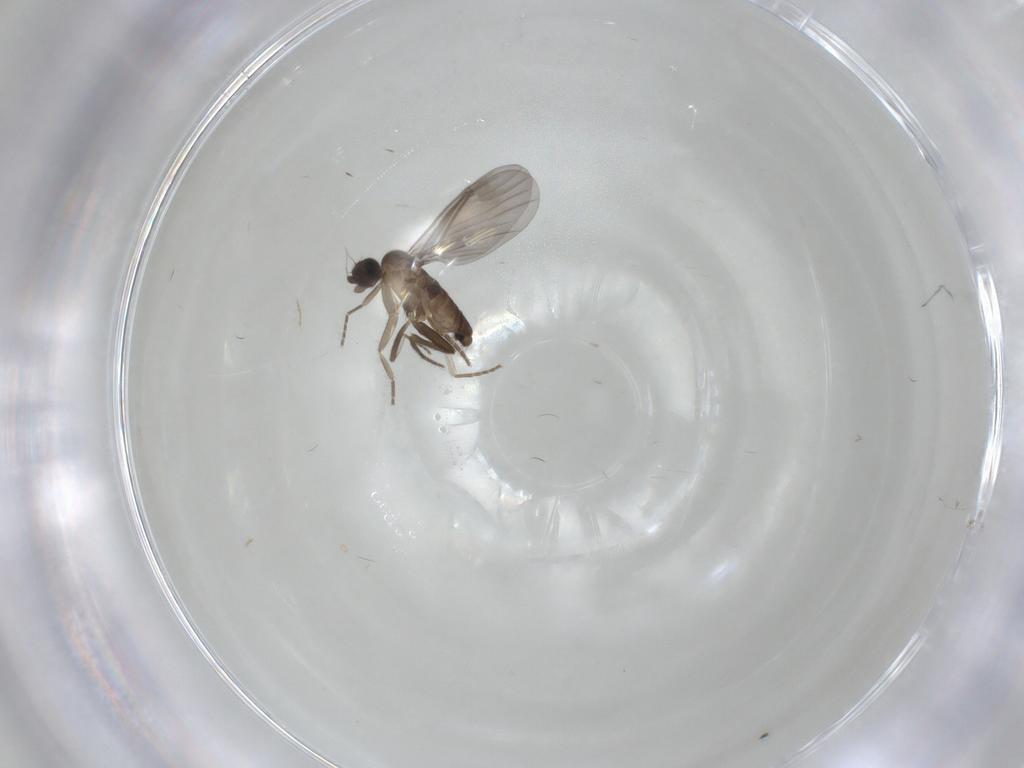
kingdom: Animalia
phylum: Arthropoda
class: Insecta
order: Diptera
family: Phoridae
